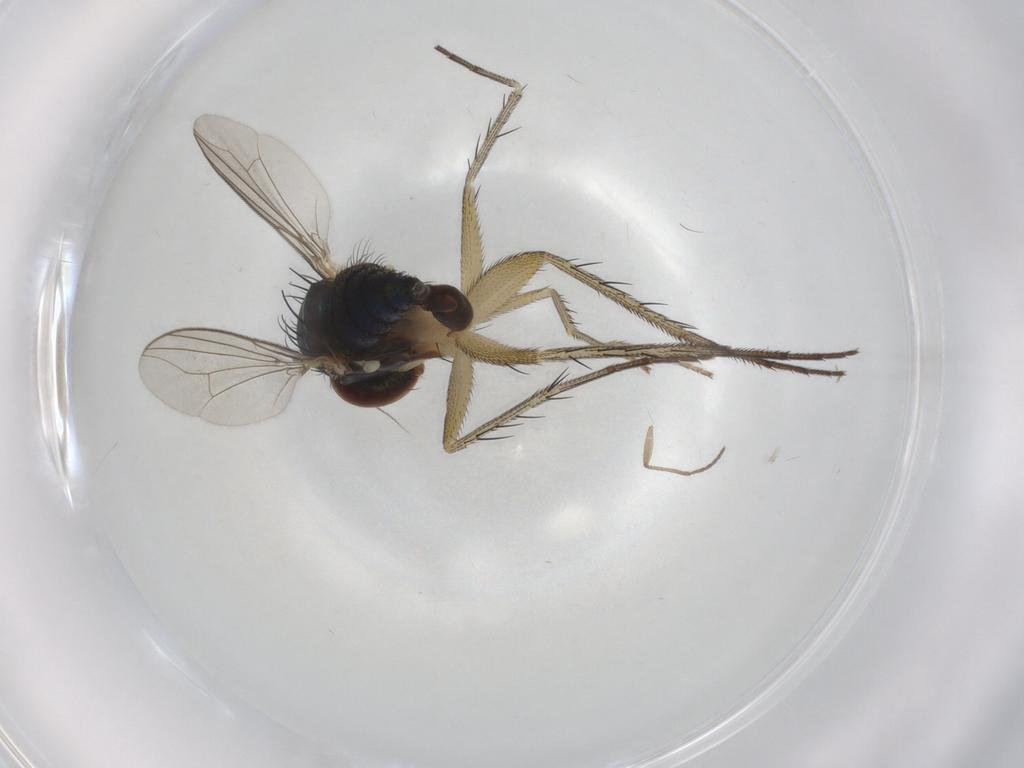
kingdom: Animalia
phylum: Arthropoda
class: Insecta
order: Diptera
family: Dolichopodidae
